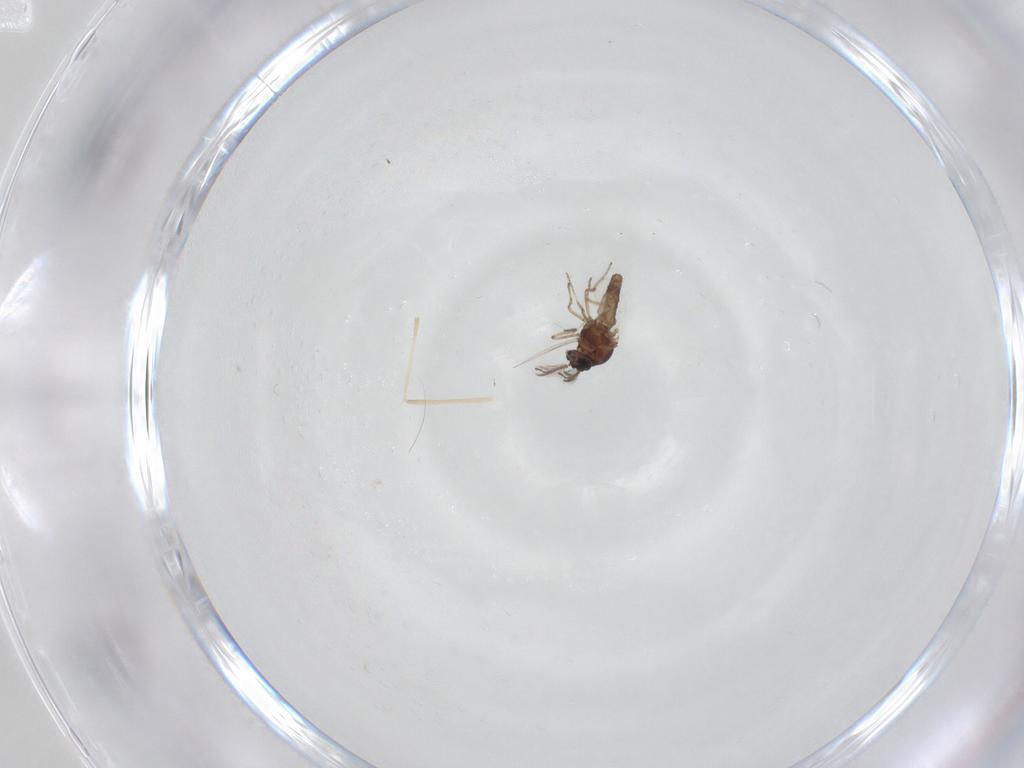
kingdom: Animalia
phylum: Arthropoda
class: Insecta
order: Diptera
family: Ceratopogonidae
